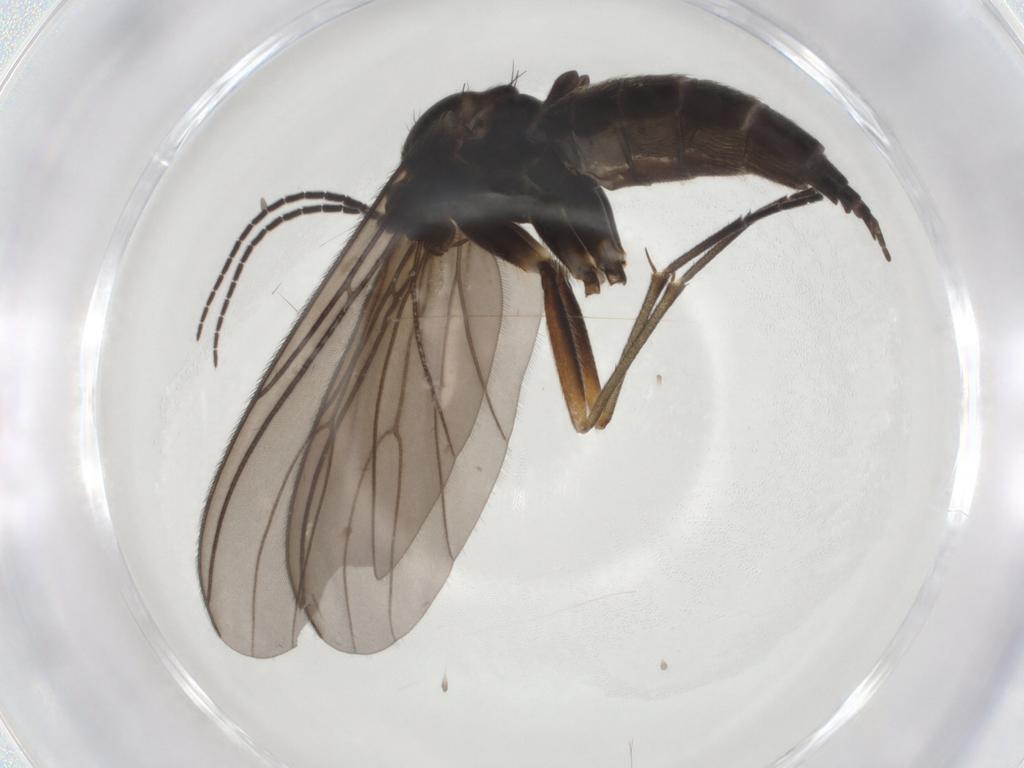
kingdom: Animalia
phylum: Arthropoda
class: Insecta
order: Diptera
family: Sciaridae
